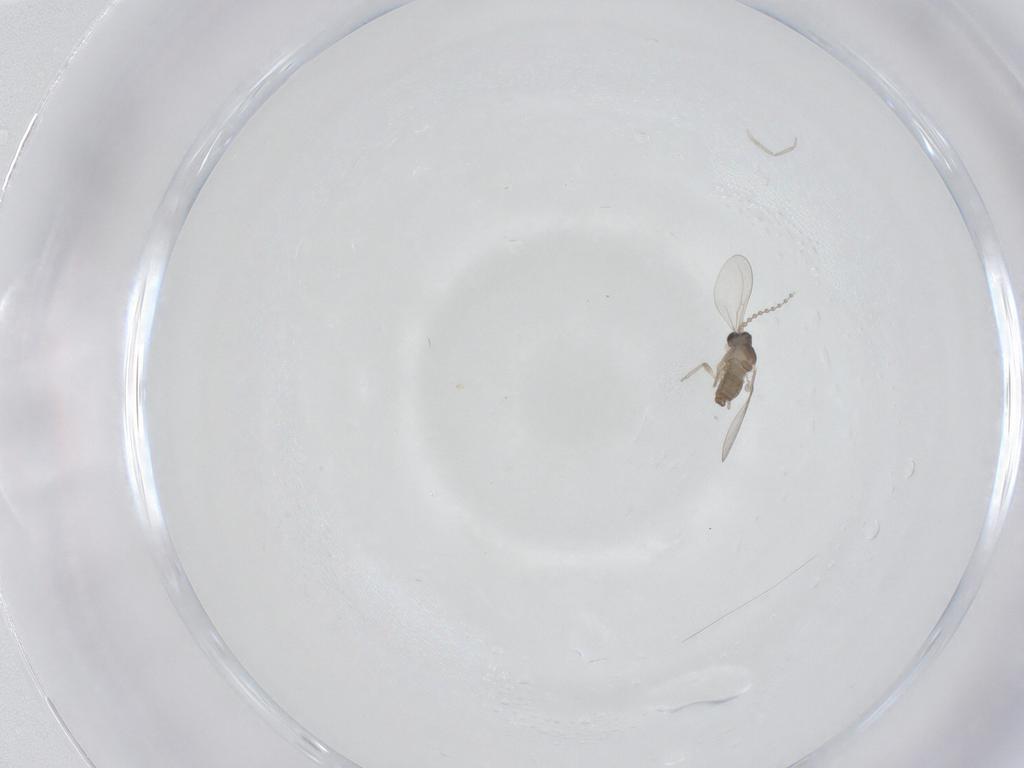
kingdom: Animalia
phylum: Arthropoda
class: Insecta
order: Diptera
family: Cecidomyiidae
